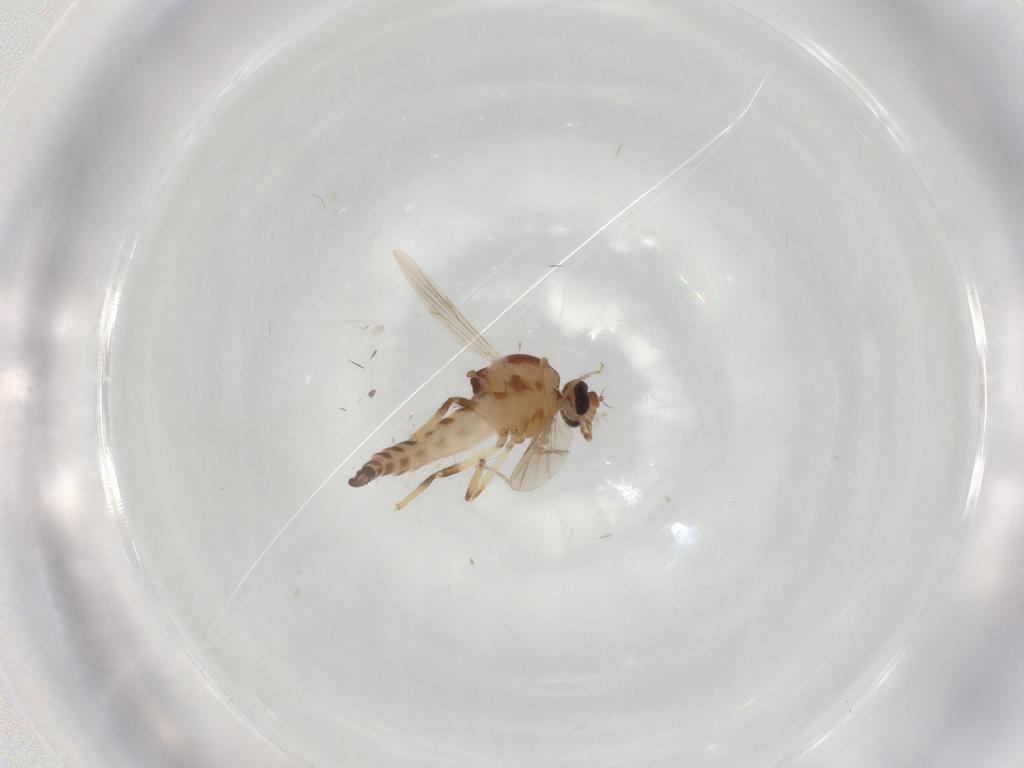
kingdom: Animalia
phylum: Arthropoda
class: Insecta
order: Diptera
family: Ceratopogonidae
